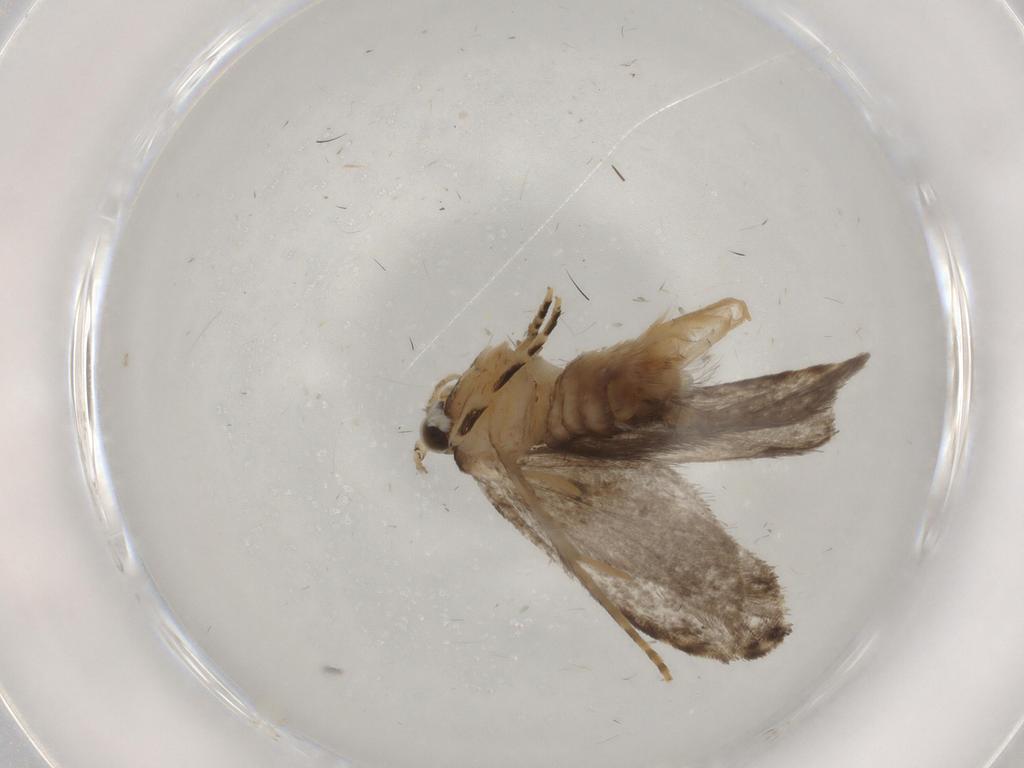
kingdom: Animalia
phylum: Arthropoda
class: Insecta
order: Lepidoptera
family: Tineidae
